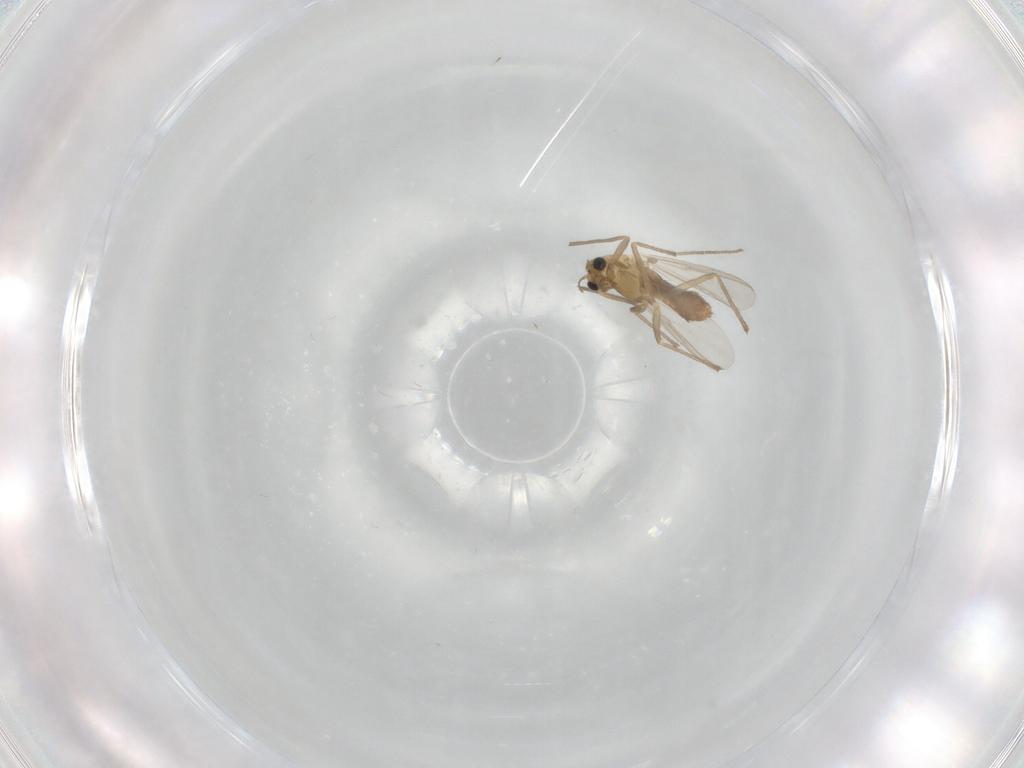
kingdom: Animalia
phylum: Arthropoda
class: Insecta
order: Diptera
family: Chironomidae
